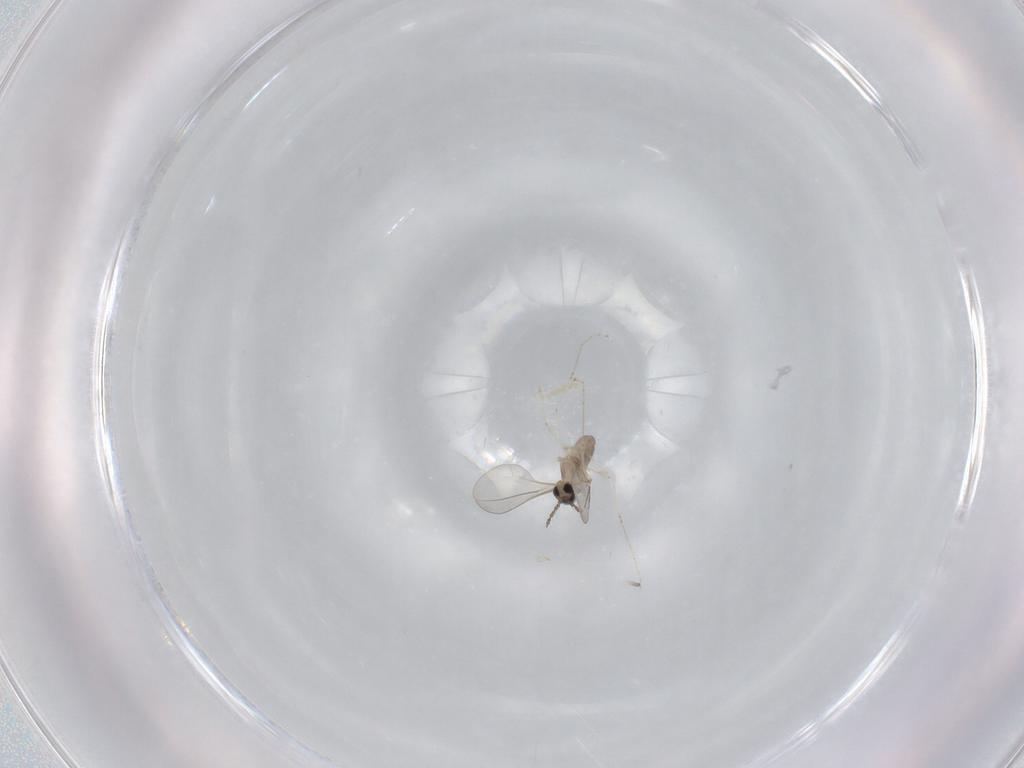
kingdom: Animalia
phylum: Arthropoda
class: Insecta
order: Diptera
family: Cecidomyiidae
